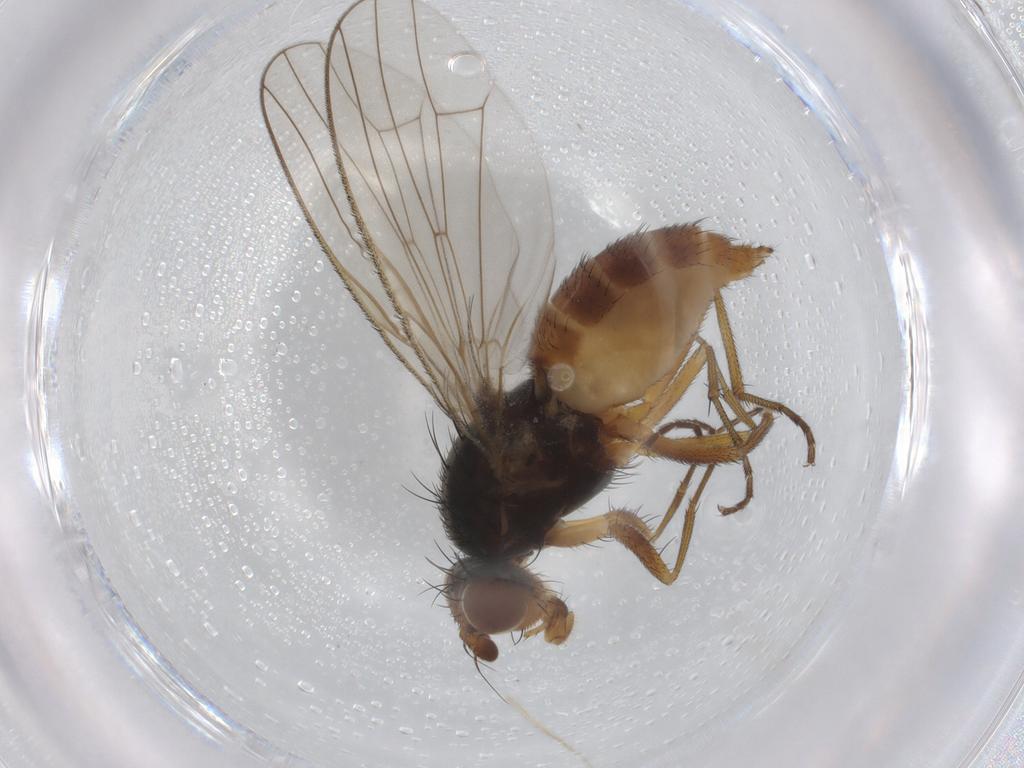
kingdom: Animalia
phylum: Arthropoda
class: Insecta
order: Diptera
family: Heleomyzidae
